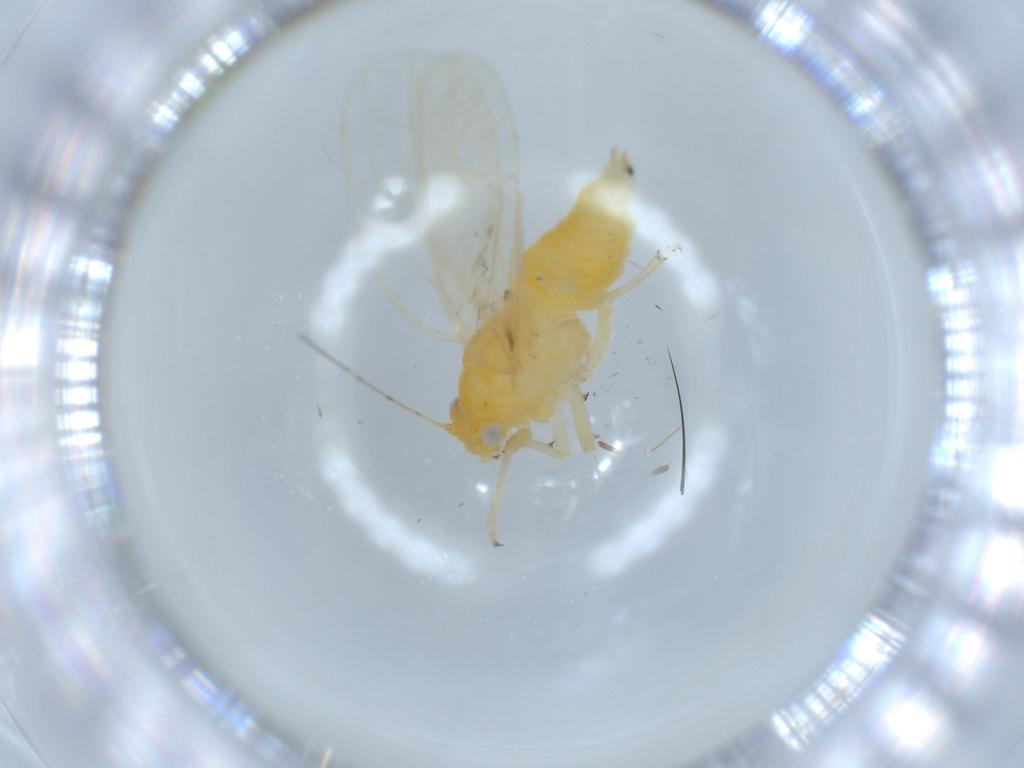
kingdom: Animalia
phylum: Arthropoda
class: Insecta
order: Hemiptera
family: Psyllidae
